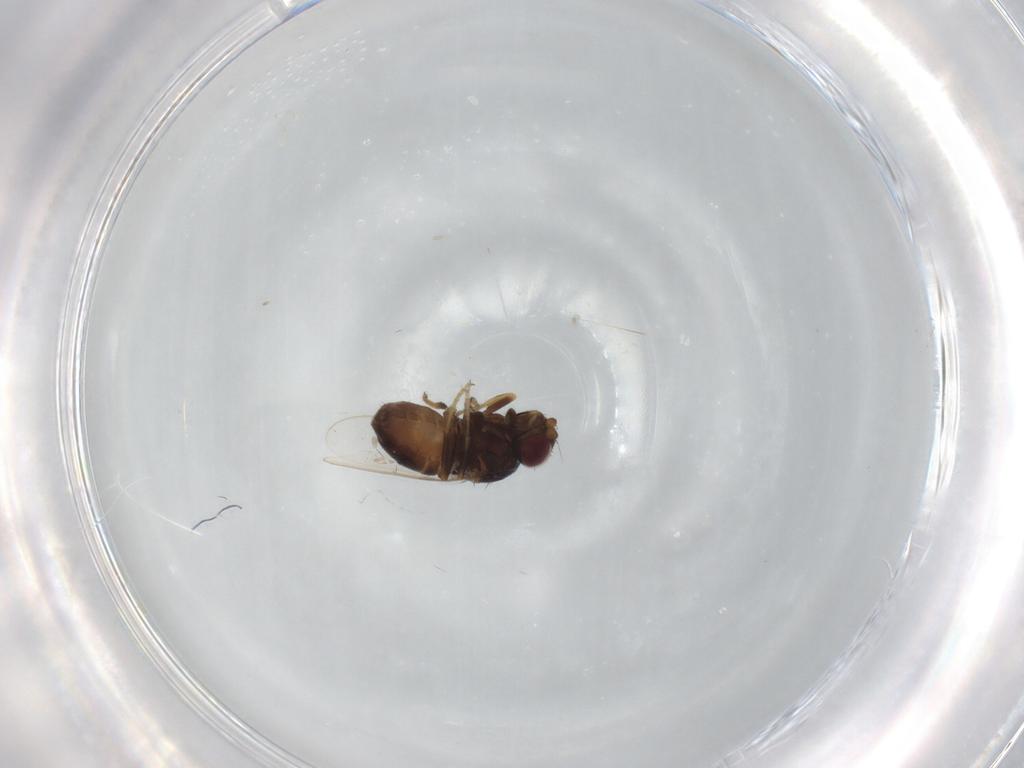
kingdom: Animalia
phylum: Arthropoda
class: Insecta
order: Diptera
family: Chloropidae
